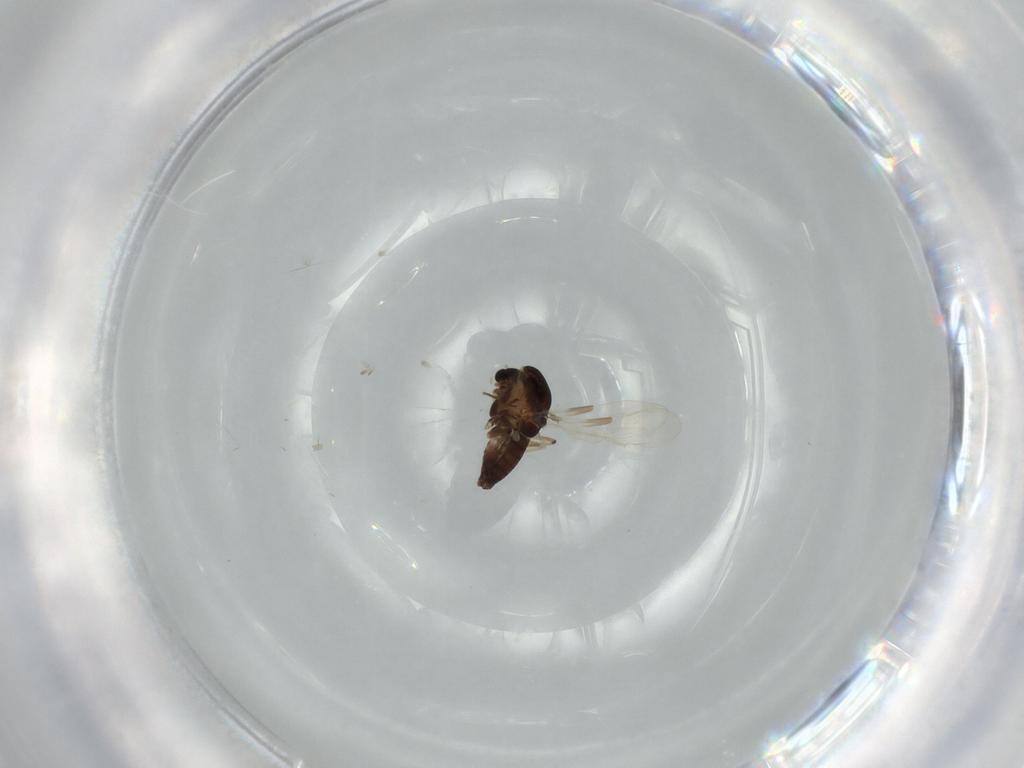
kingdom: Animalia
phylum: Arthropoda
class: Insecta
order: Diptera
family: Chironomidae
